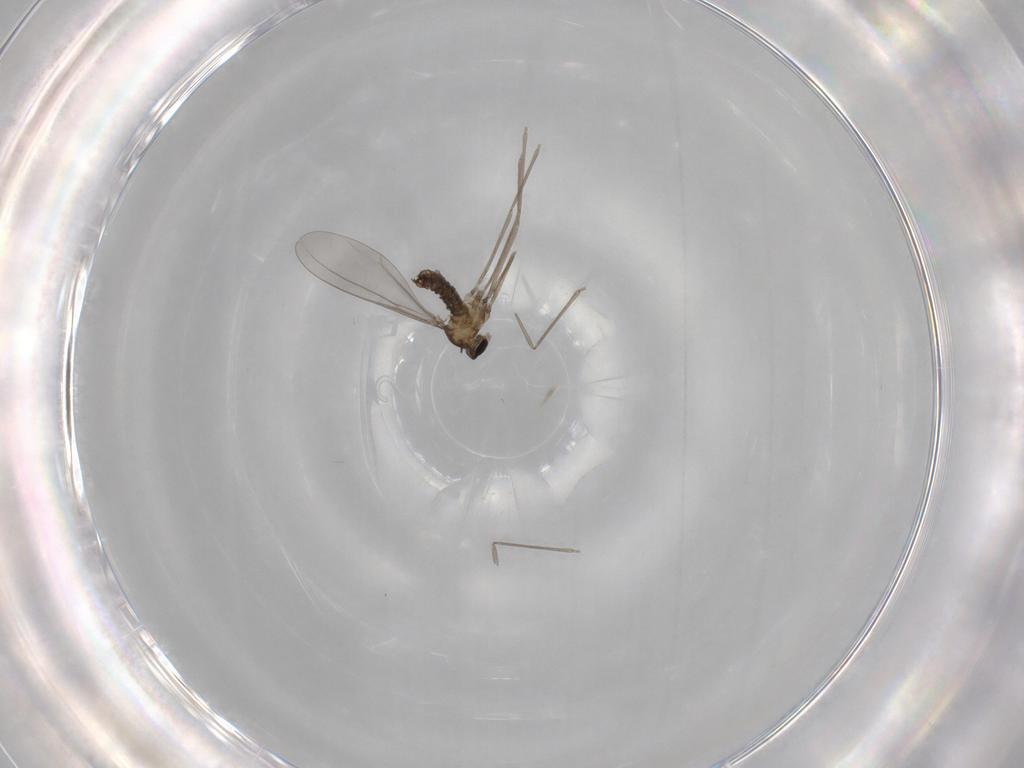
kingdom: Animalia
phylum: Arthropoda
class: Insecta
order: Diptera
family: Cecidomyiidae
